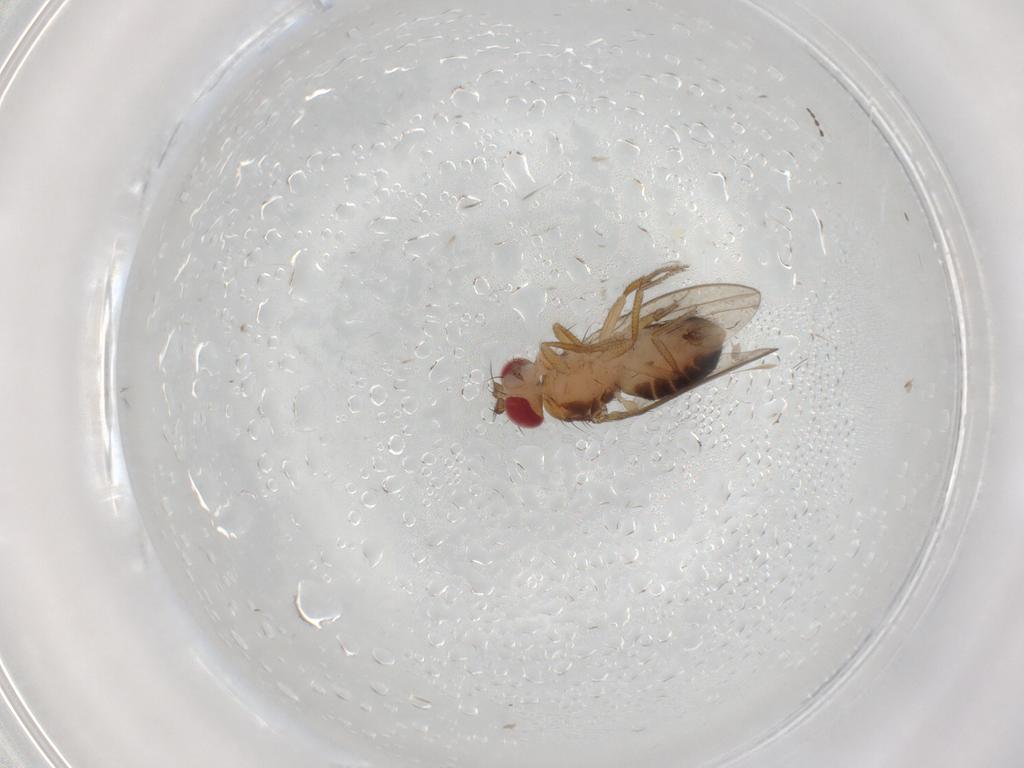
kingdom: Animalia
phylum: Arthropoda
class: Insecta
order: Diptera
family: Drosophilidae
